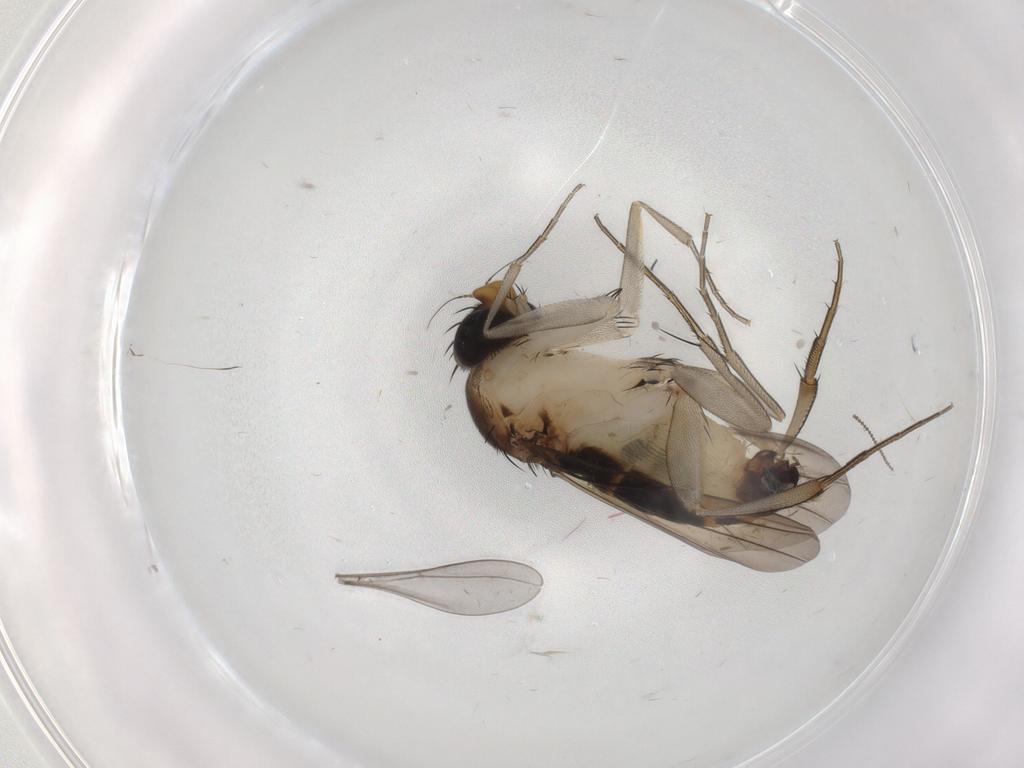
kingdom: Animalia
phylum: Arthropoda
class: Insecta
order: Diptera
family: Phoridae
